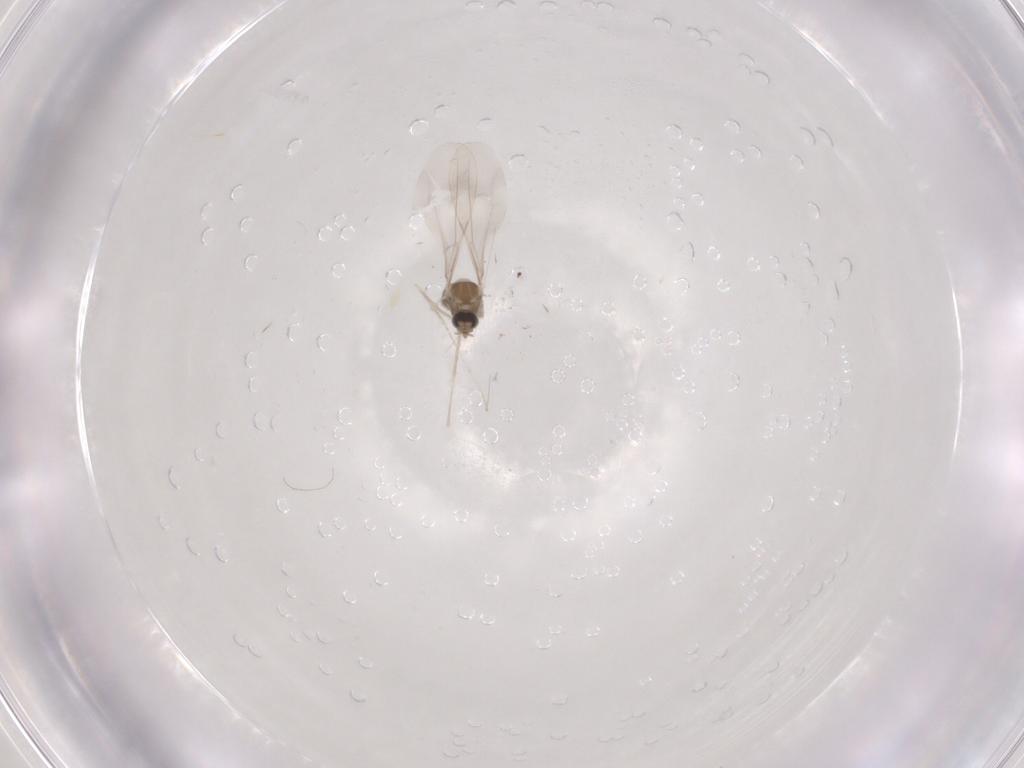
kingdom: Animalia
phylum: Arthropoda
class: Insecta
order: Diptera
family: Cecidomyiidae
